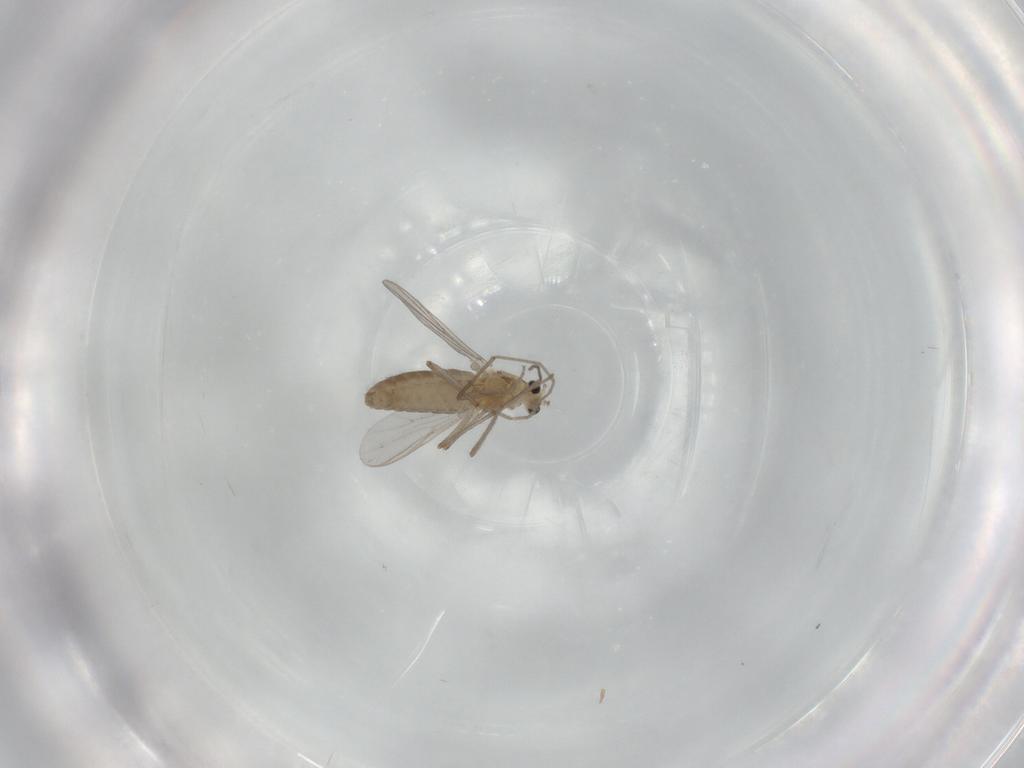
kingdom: Animalia
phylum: Arthropoda
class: Insecta
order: Diptera
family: Chironomidae
